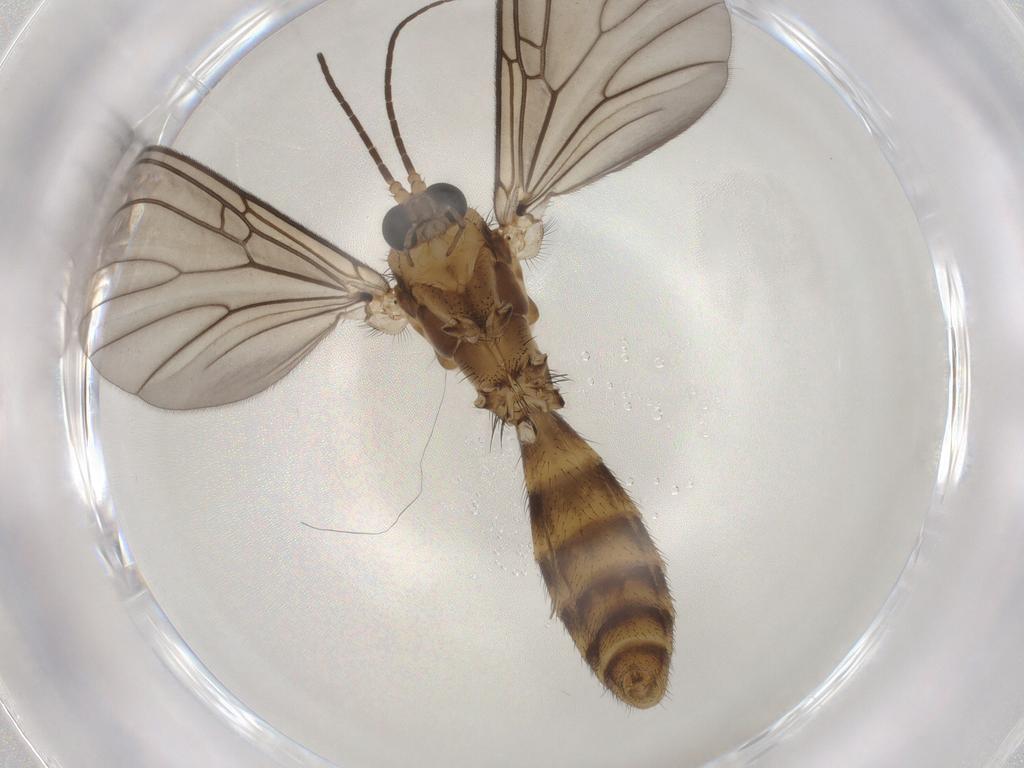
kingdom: Animalia
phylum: Arthropoda
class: Insecta
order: Diptera
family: Mycetophilidae
